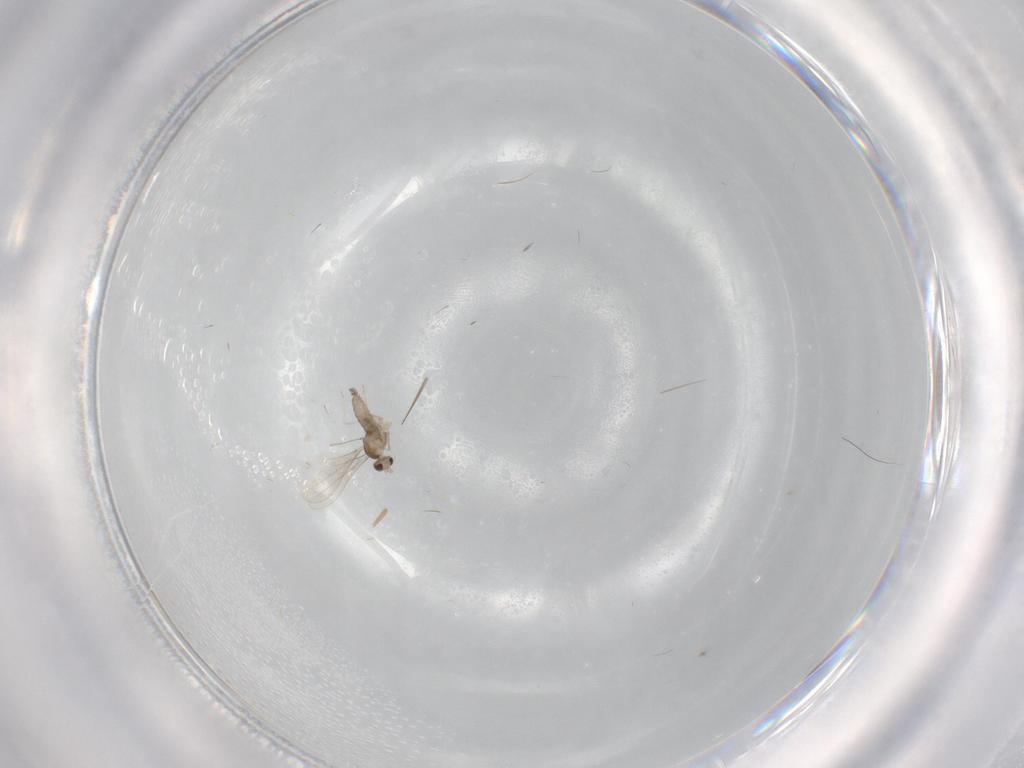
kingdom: Animalia
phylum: Arthropoda
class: Insecta
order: Diptera
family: Cecidomyiidae
